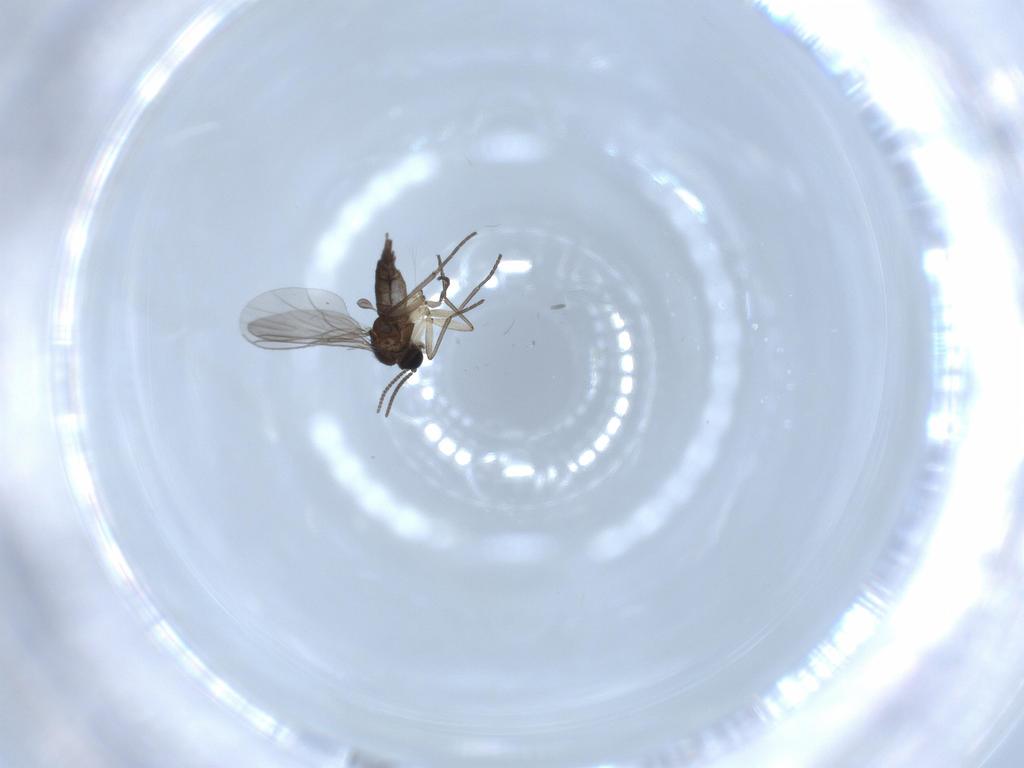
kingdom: Animalia
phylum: Arthropoda
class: Insecta
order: Diptera
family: Sciaridae
